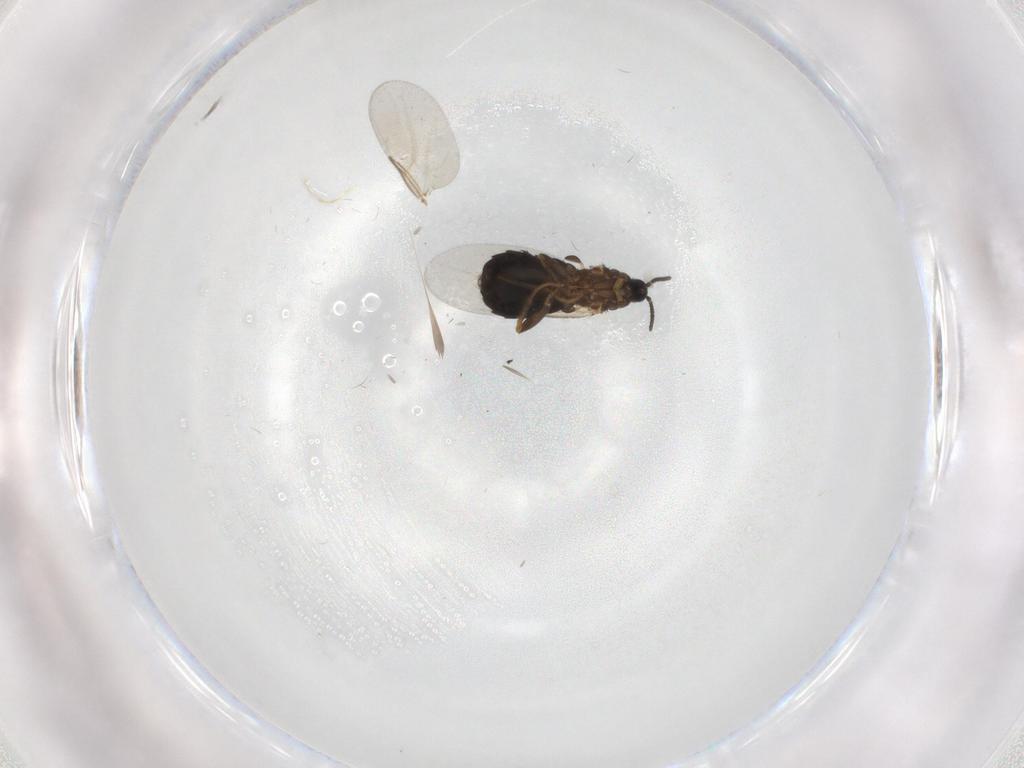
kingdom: Animalia
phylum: Arthropoda
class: Insecta
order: Diptera
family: Scatopsidae
